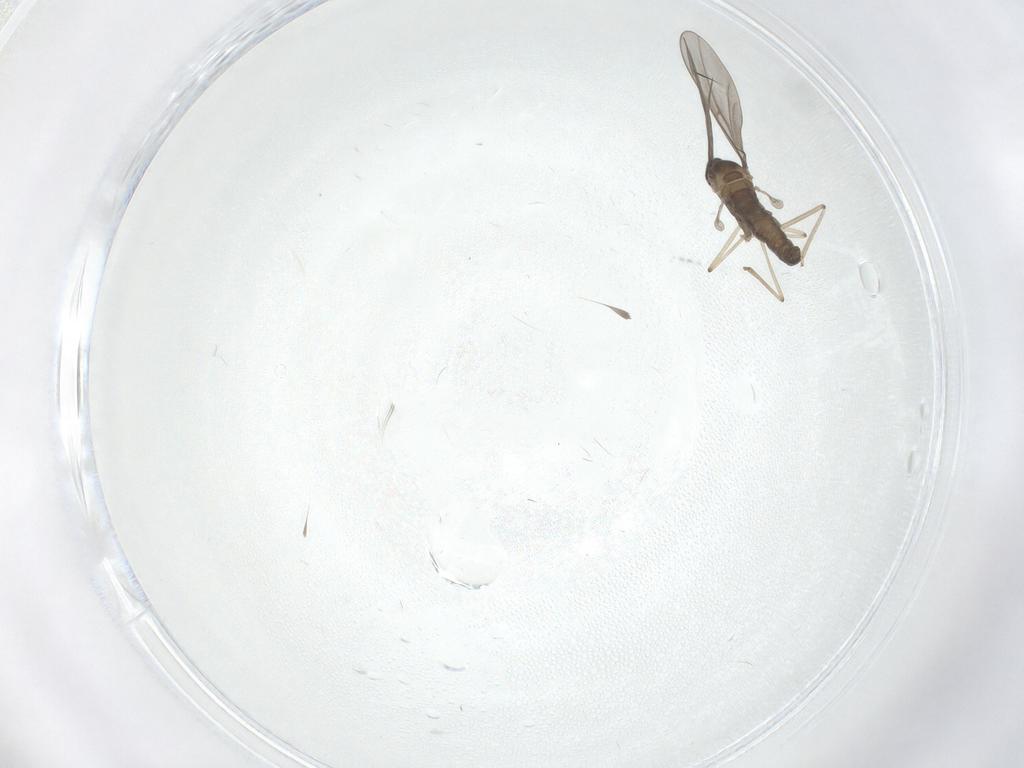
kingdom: Animalia
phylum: Arthropoda
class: Insecta
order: Diptera
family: Cecidomyiidae
